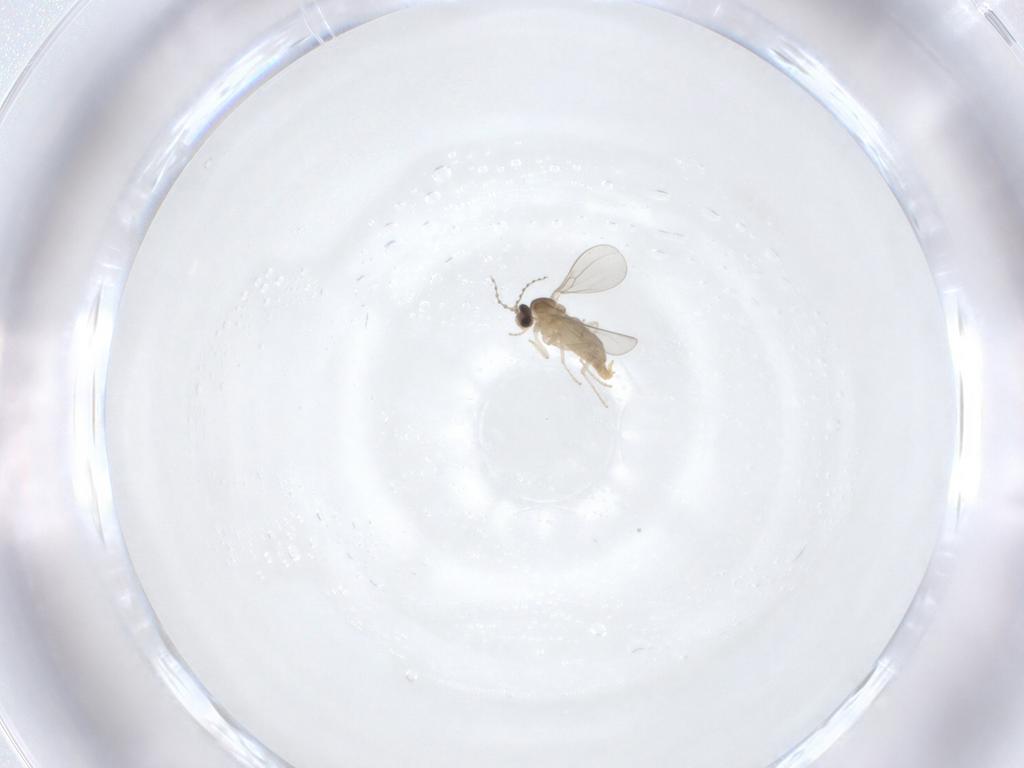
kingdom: Animalia
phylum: Arthropoda
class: Insecta
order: Diptera
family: Cecidomyiidae
